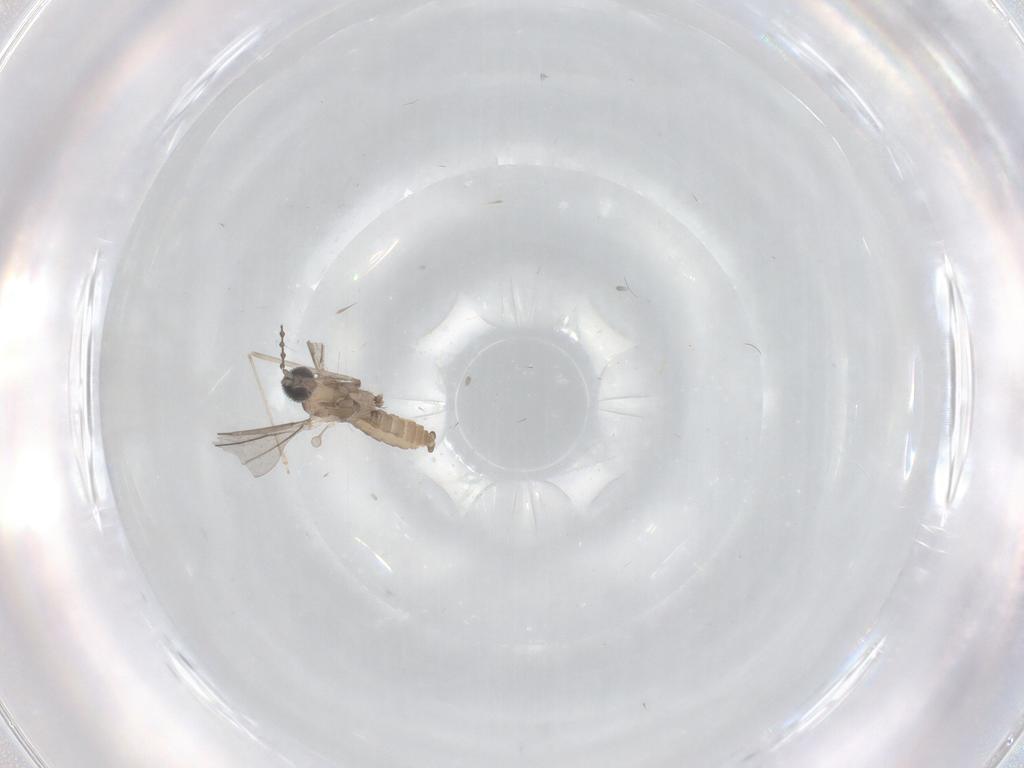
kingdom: Animalia
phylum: Arthropoda
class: Insecta
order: Diptera
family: Cecidomyiidae
